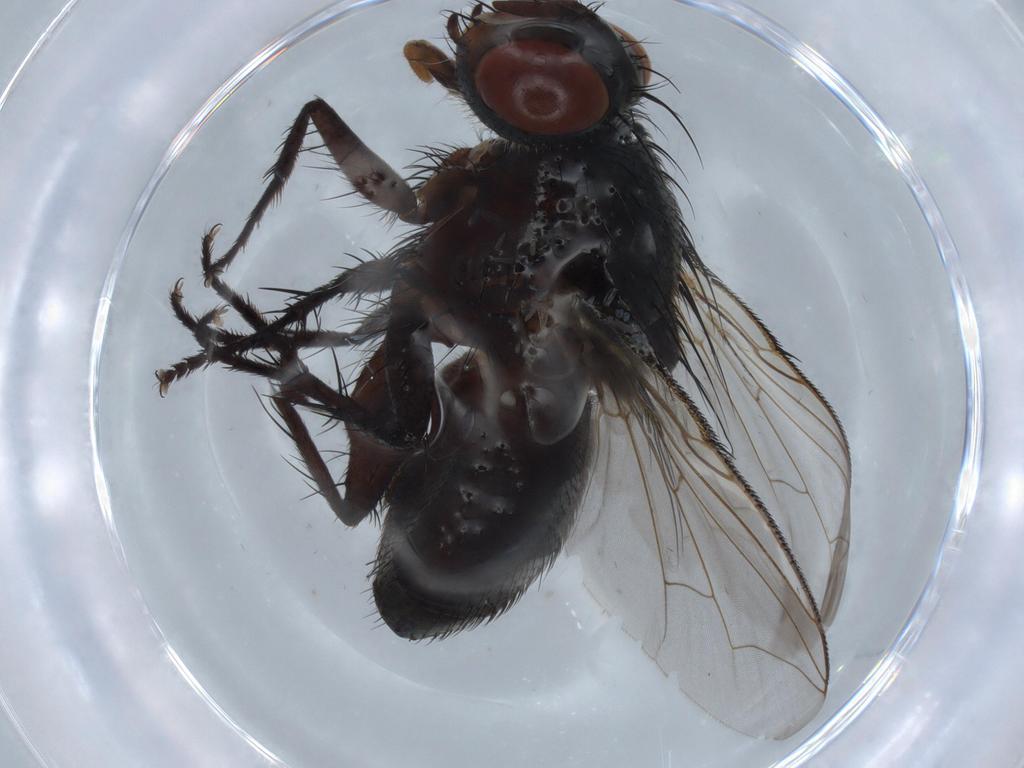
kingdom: Animalia
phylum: Arthropoda
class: Insecta
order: Diptera
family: Sarcophagidae
